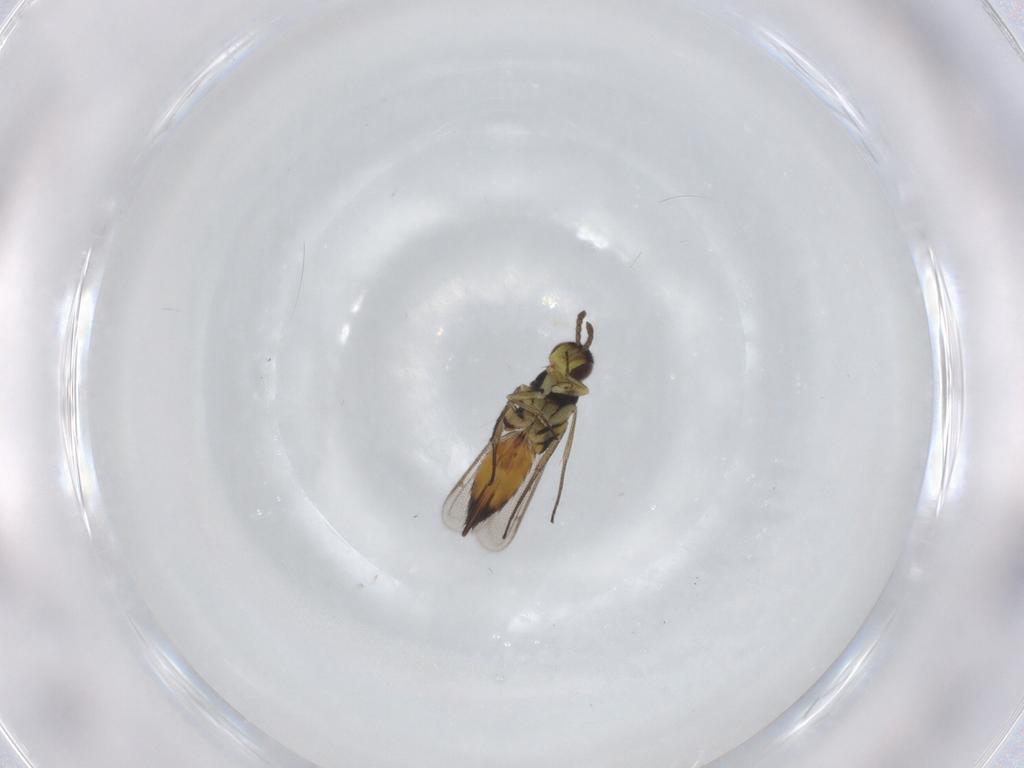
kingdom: Animalia
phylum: Arthropoda
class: Insecta
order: Hymenoptera
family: Eulophidae
